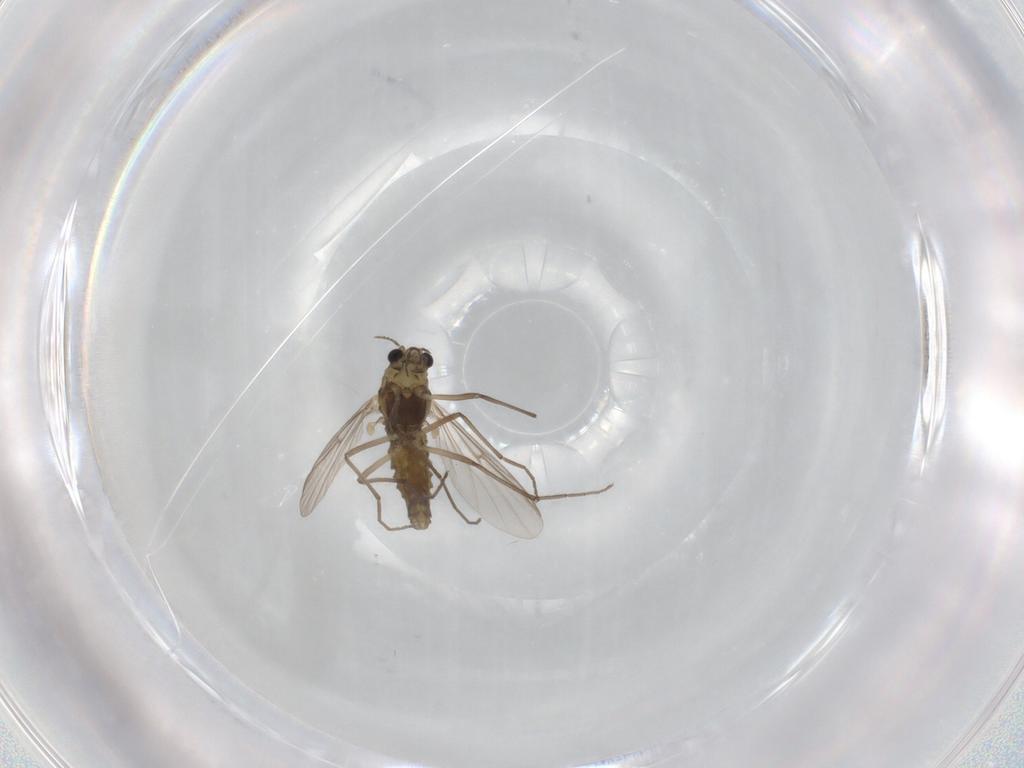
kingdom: Animalia
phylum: Arthropoda
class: Insecta
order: Diptera
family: Chironomidae
